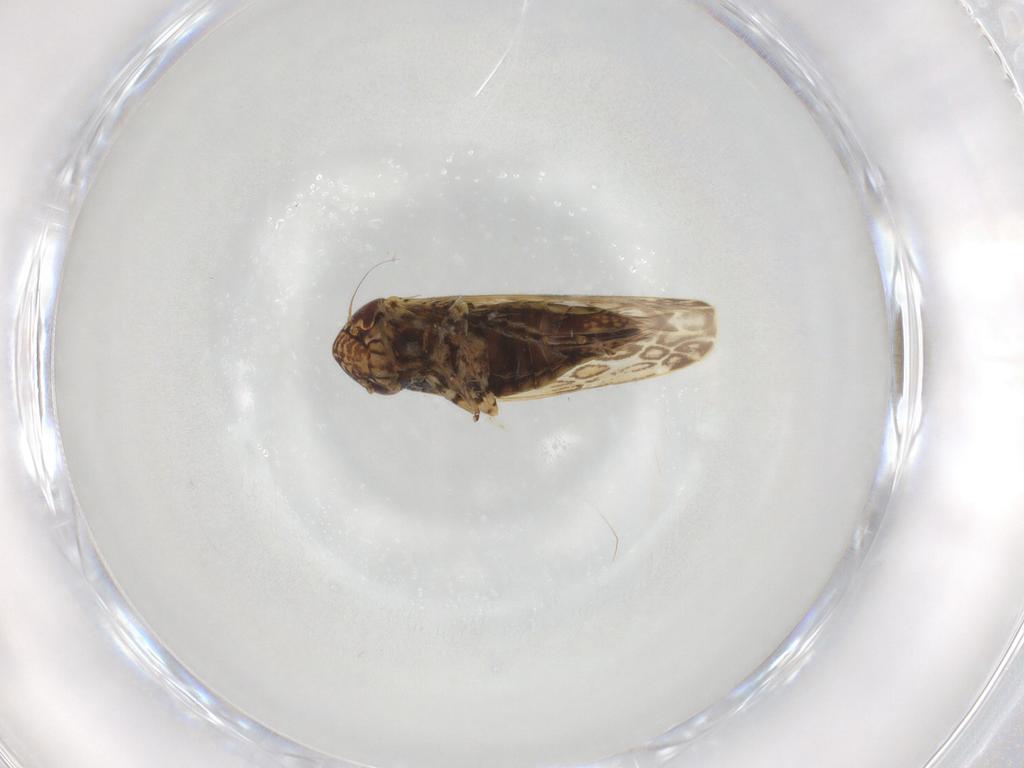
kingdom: Animalia
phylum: Arthropoda
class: Insecta
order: Hemiptera
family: Cicadellidae
